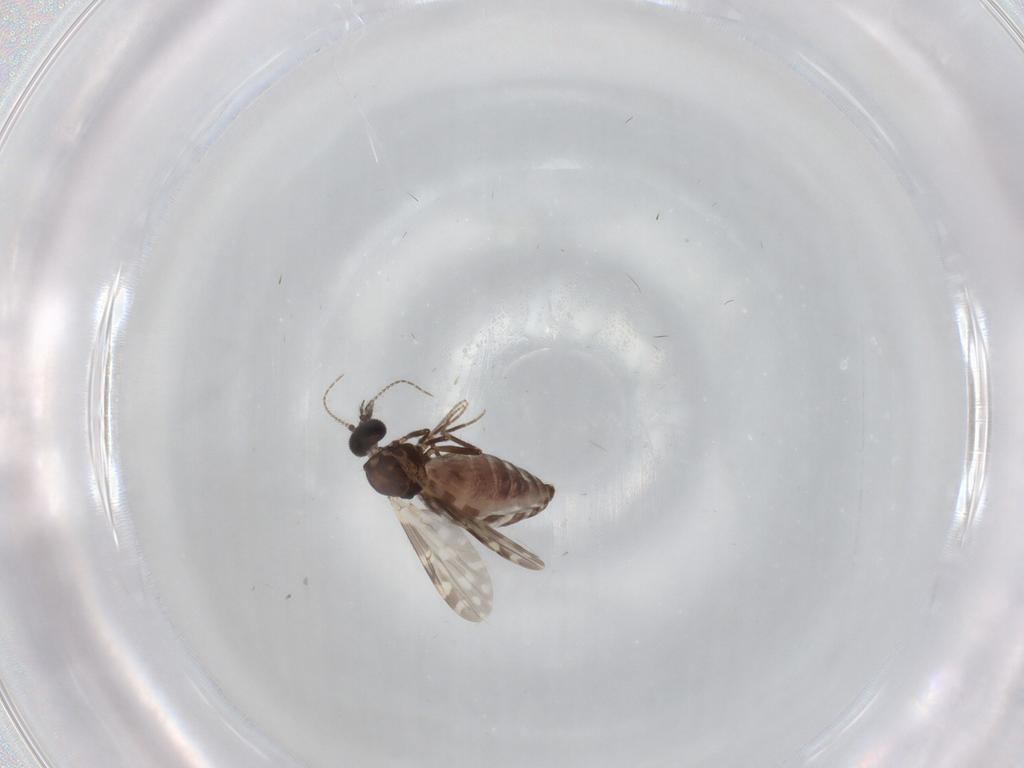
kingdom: Animalia
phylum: Arthropoda
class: Insecta
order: Diptera
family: Ceratopogonidae
